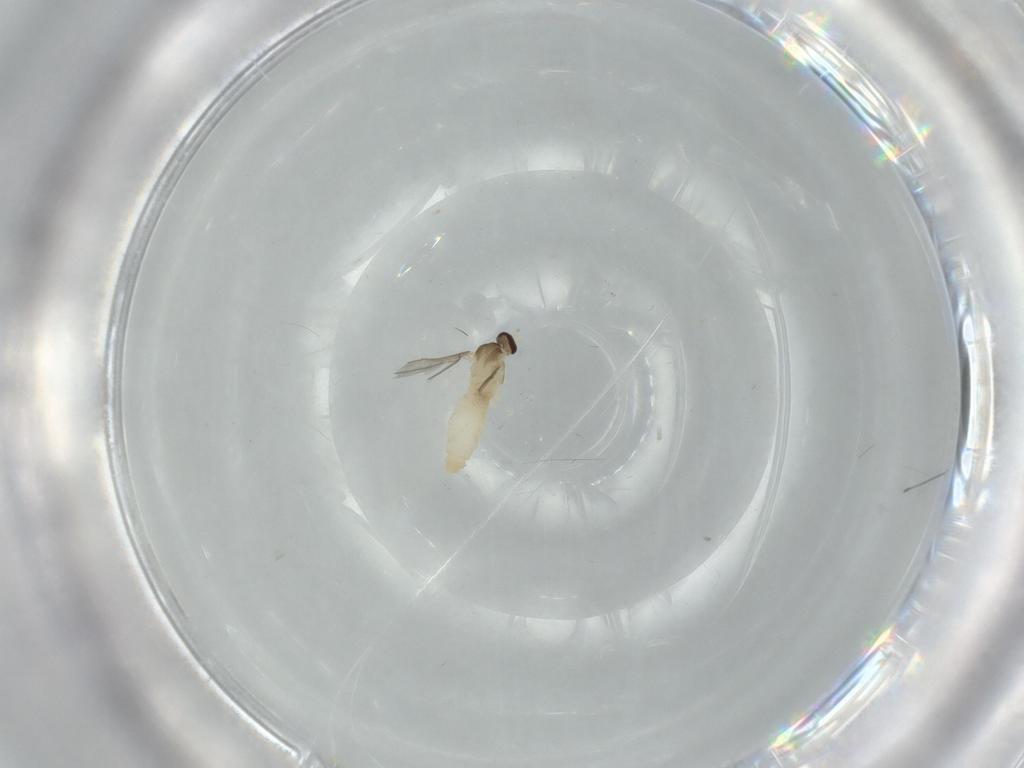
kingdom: Animalia
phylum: Arthropoda
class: Insecta
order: Diptera
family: Cecidomyiidae
